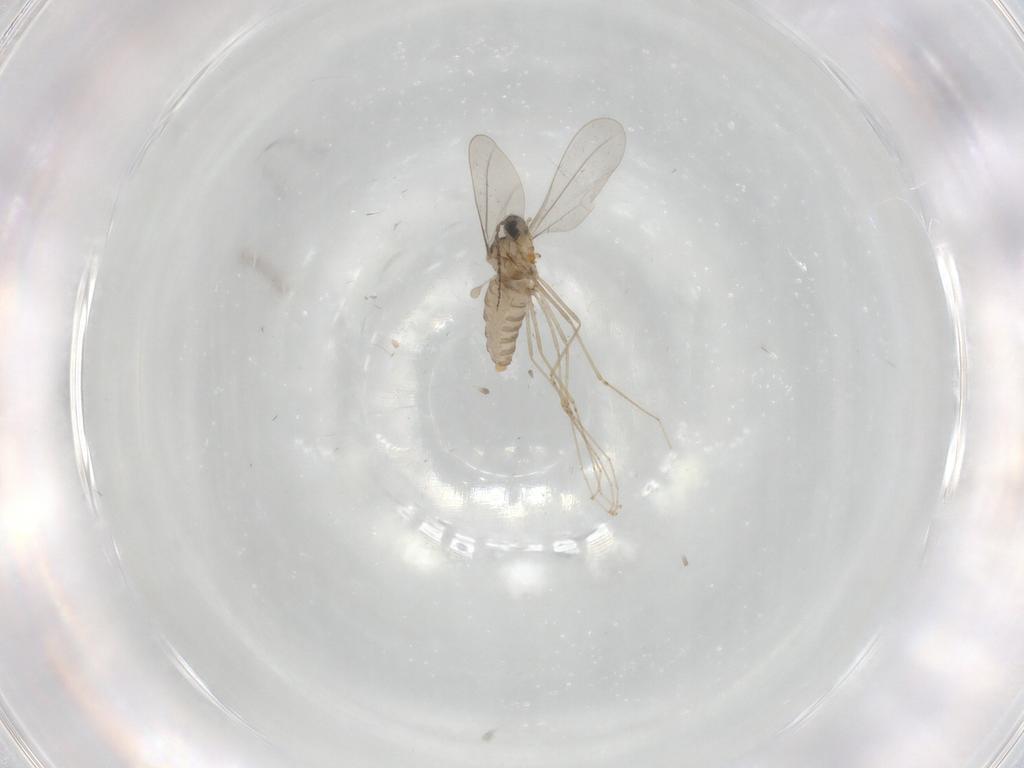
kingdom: Animalia
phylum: Arthropoda
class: Insecta
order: Diptera
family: Cecidomyiidae
